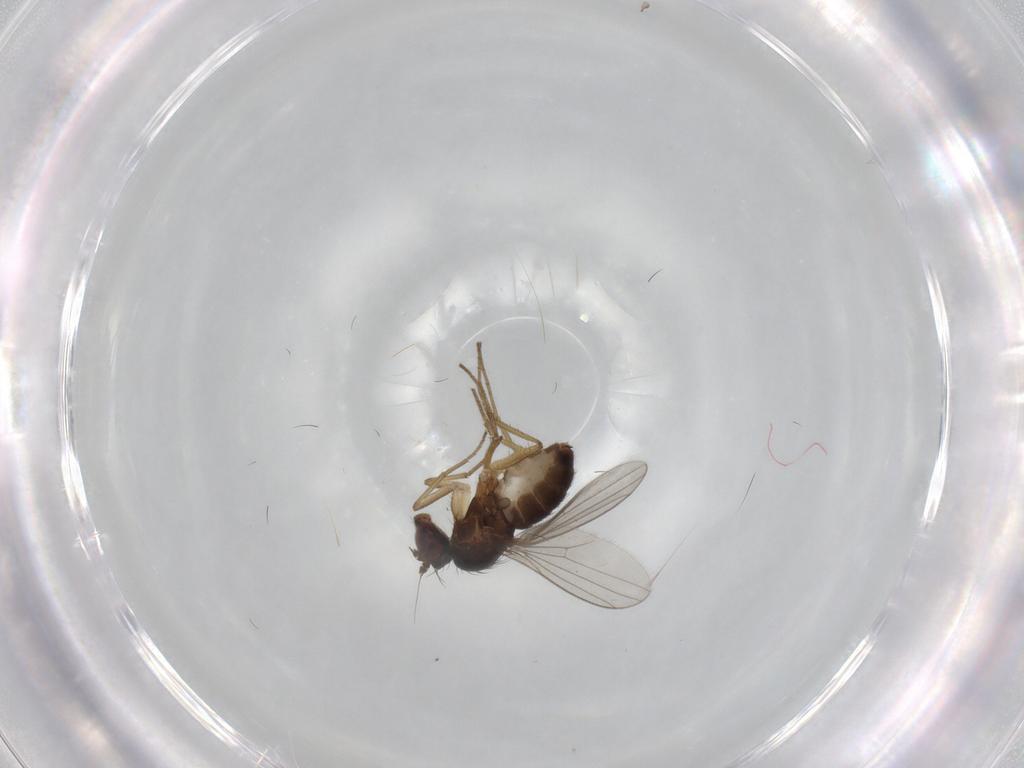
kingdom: Animalia
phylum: Arthropoda
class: Insecta
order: Diptera
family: Dolichopodidae
